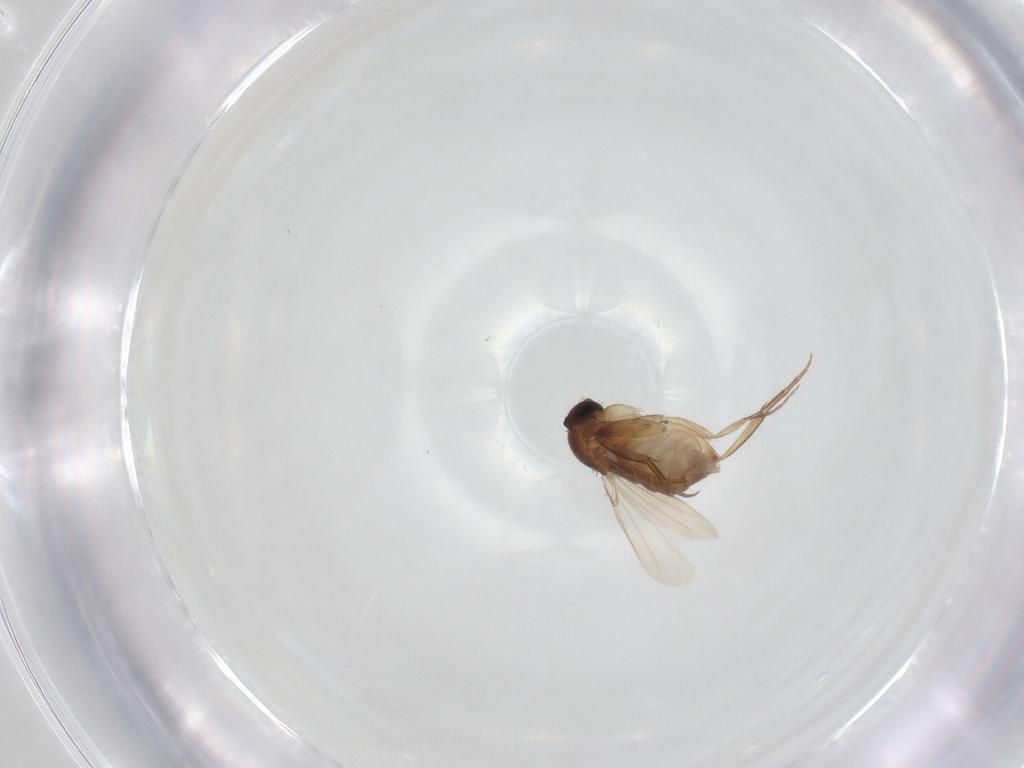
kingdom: Animalia
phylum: Arthropoda
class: Insecta
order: Diptera
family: Phoridae
